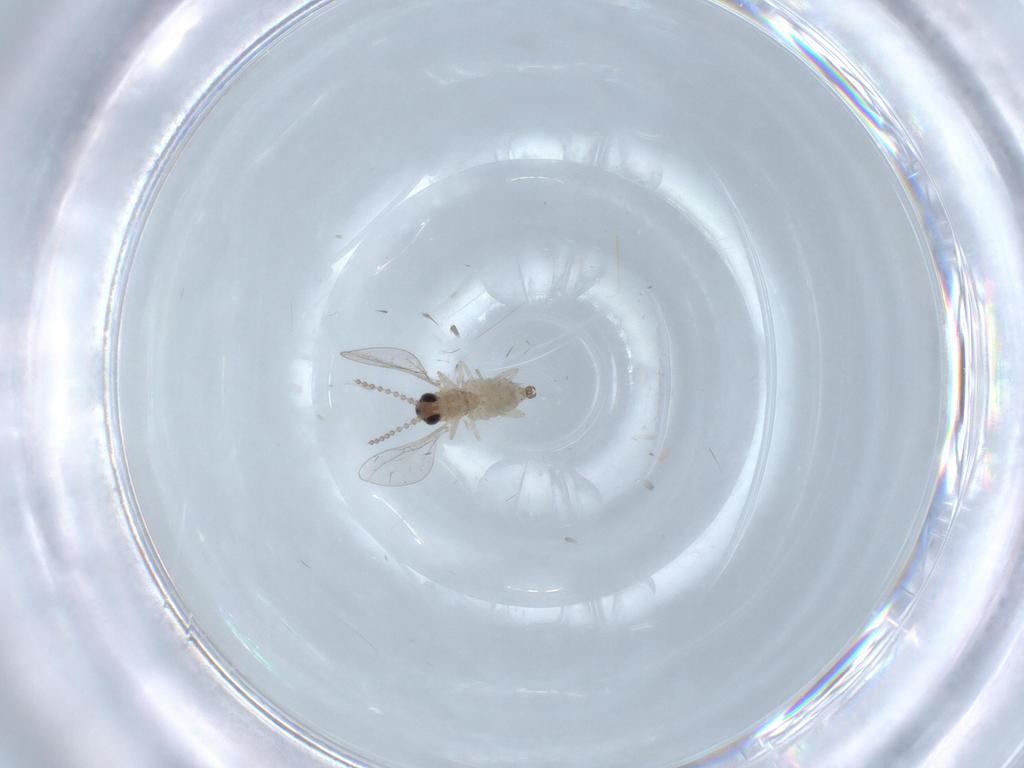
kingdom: Animalia
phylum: Arthropoda
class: Insecta
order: Diptera
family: Cecidomyiidae
